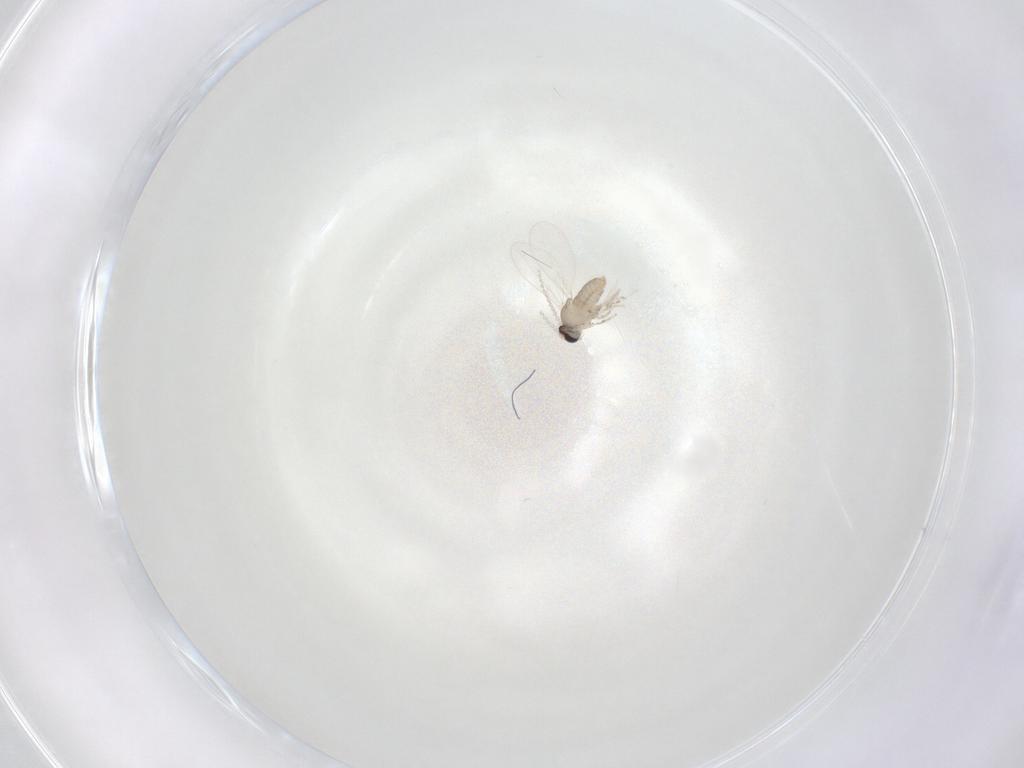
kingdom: Animalia
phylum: Arthropoda
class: Insecta
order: Diptera
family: Cecidomyiidae
